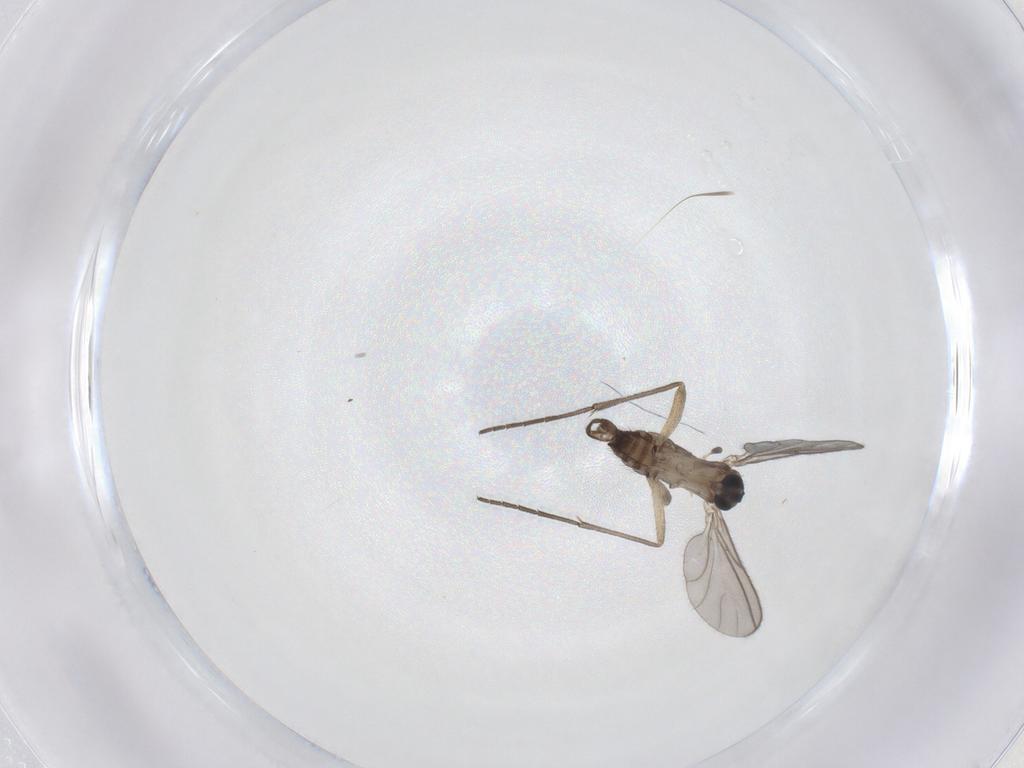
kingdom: Animalia
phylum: Arthropoda
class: Insecta
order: Diptera
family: Sciaridae
